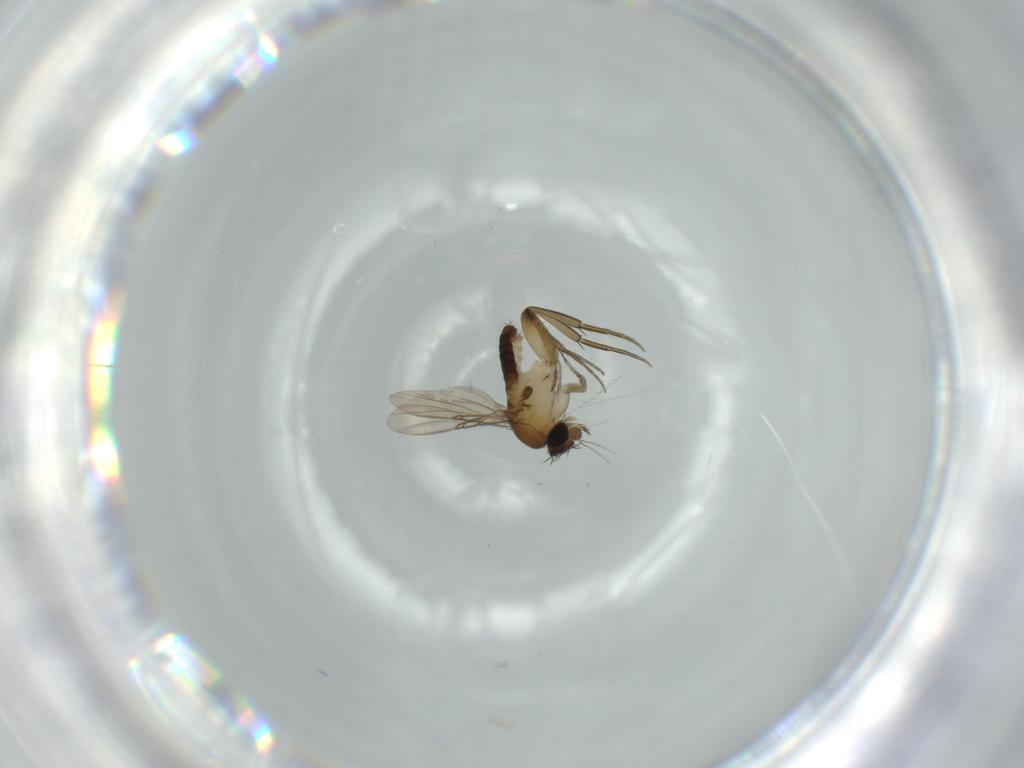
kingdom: Animalia
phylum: Arthropoda
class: Insecta
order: Diptera
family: Phoridae
